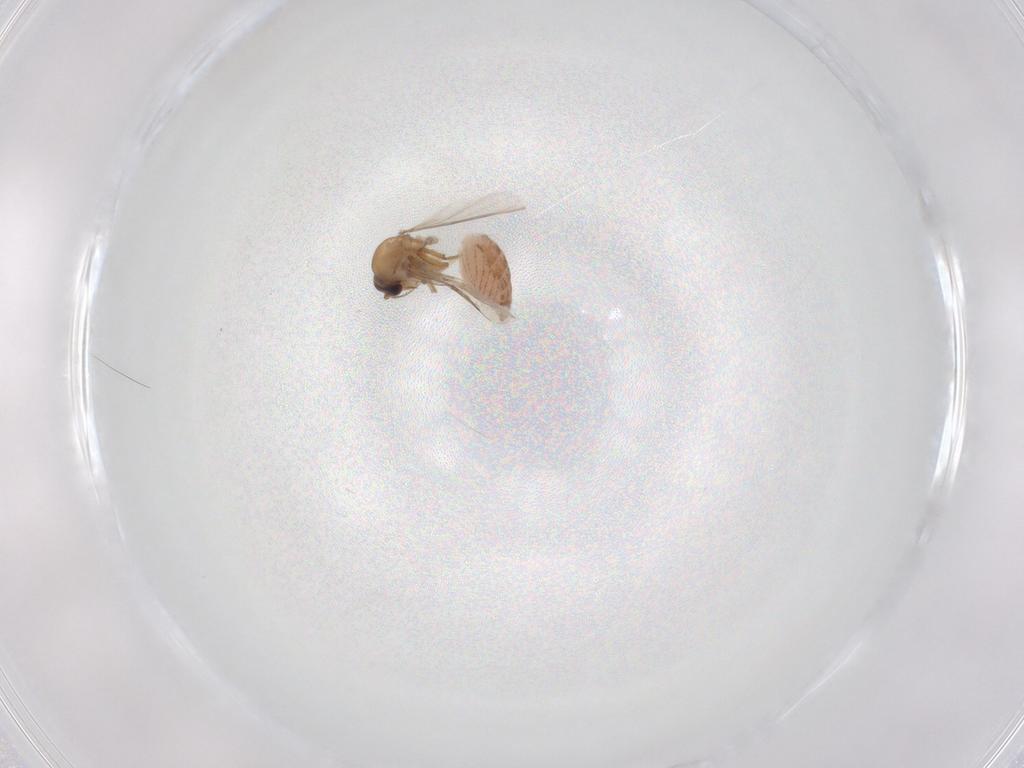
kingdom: Animalia
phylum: Arthropoda
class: Insecta
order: Diptera
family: Psychodidae
